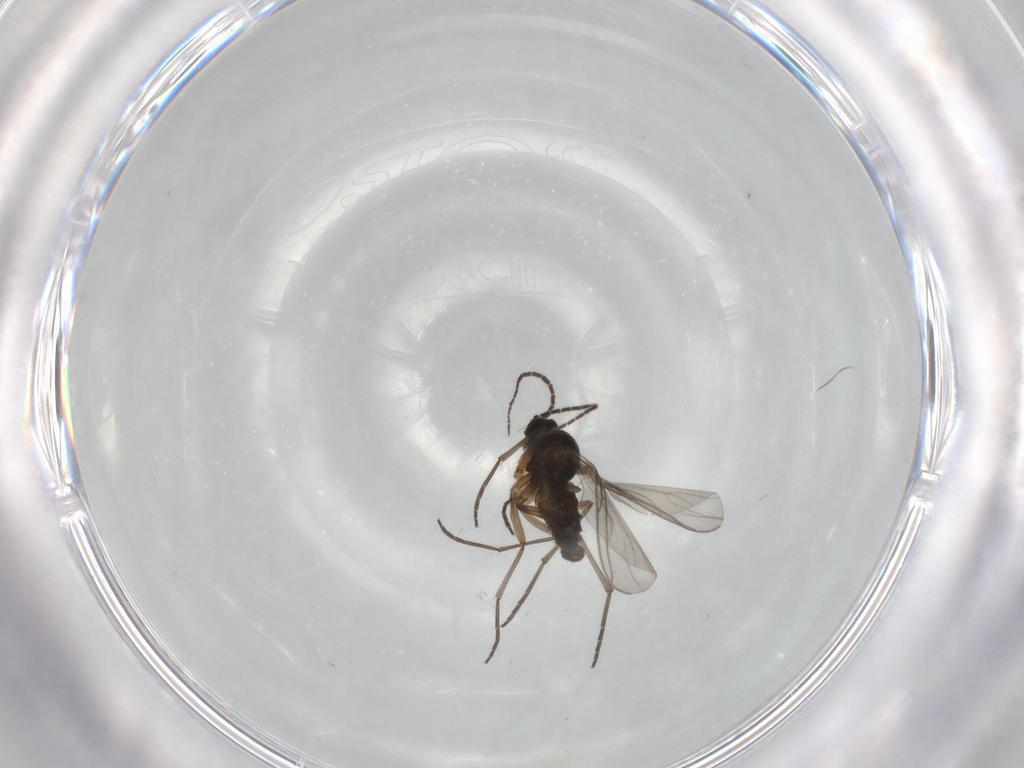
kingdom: Animalia
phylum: Arthropoda
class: Insecta
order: Diptera
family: Sciaridae
